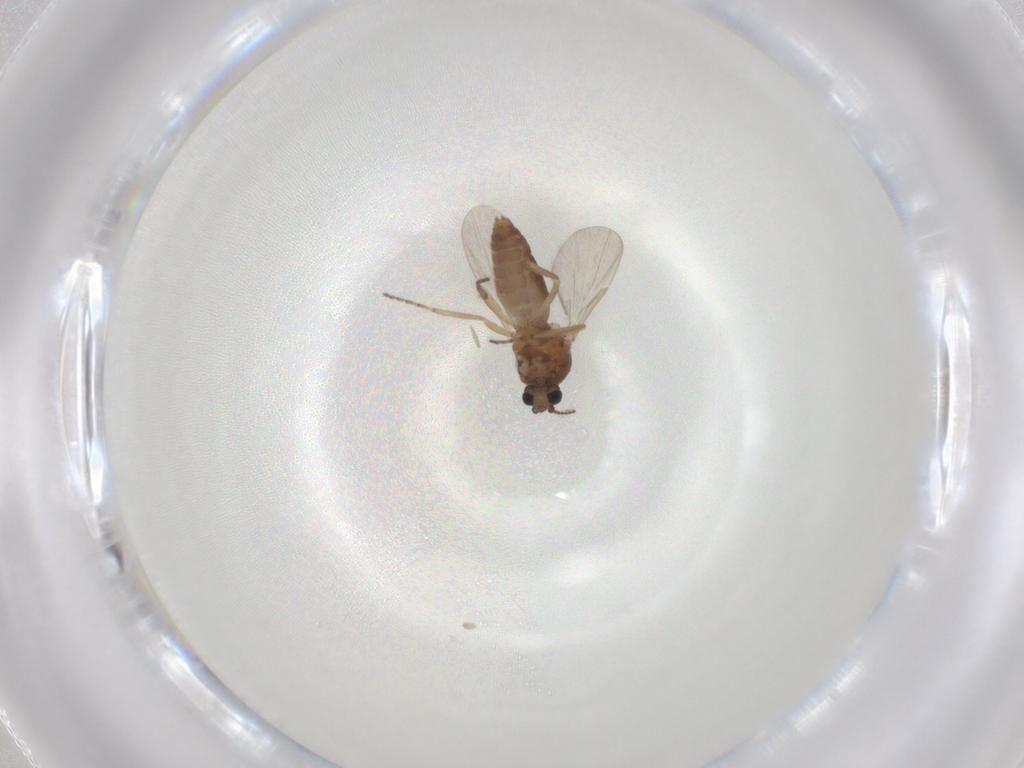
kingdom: Animalia
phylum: Arthropoda
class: Insecta
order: Diptera
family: Ceratopogonidae
